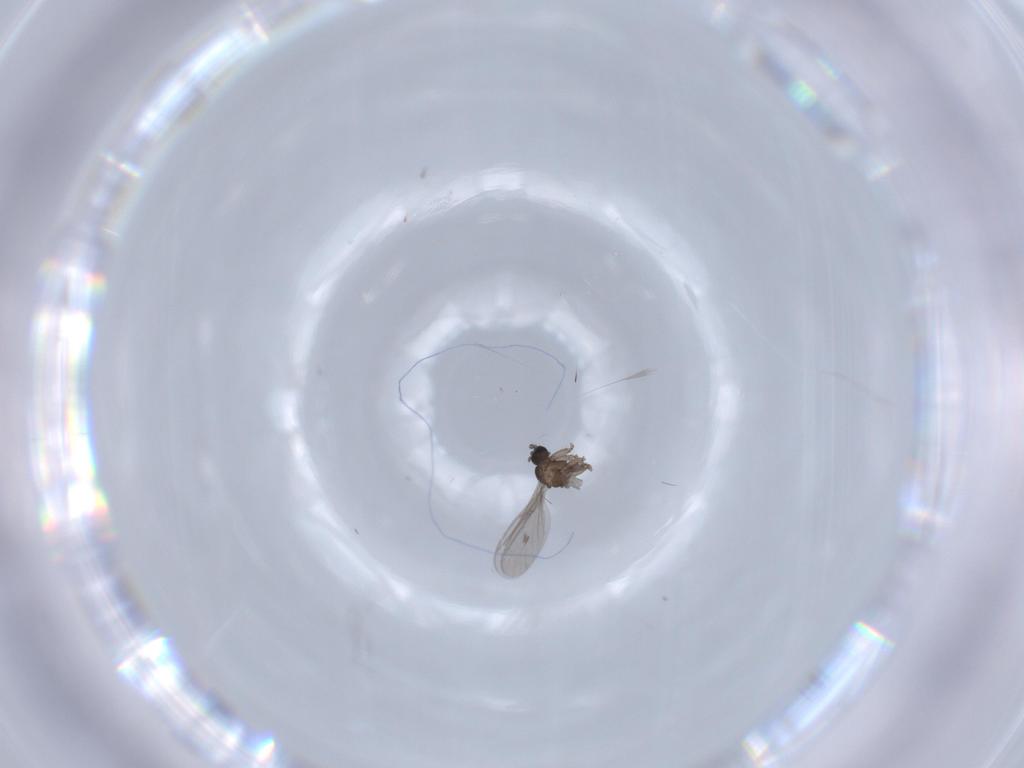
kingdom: Animalia
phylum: Arthropoda
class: Insecta
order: Diptera
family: Sciaridae
